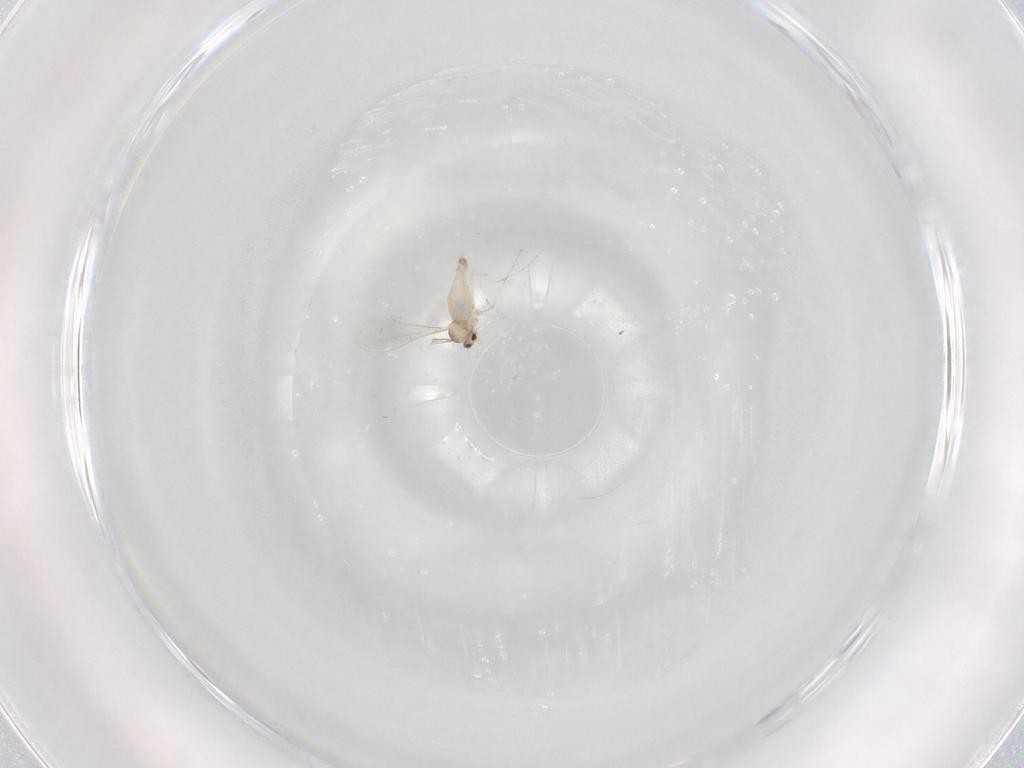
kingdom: Animalia
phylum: Arthropoda
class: Insecta
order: Diptera
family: Cecidomyiidae
